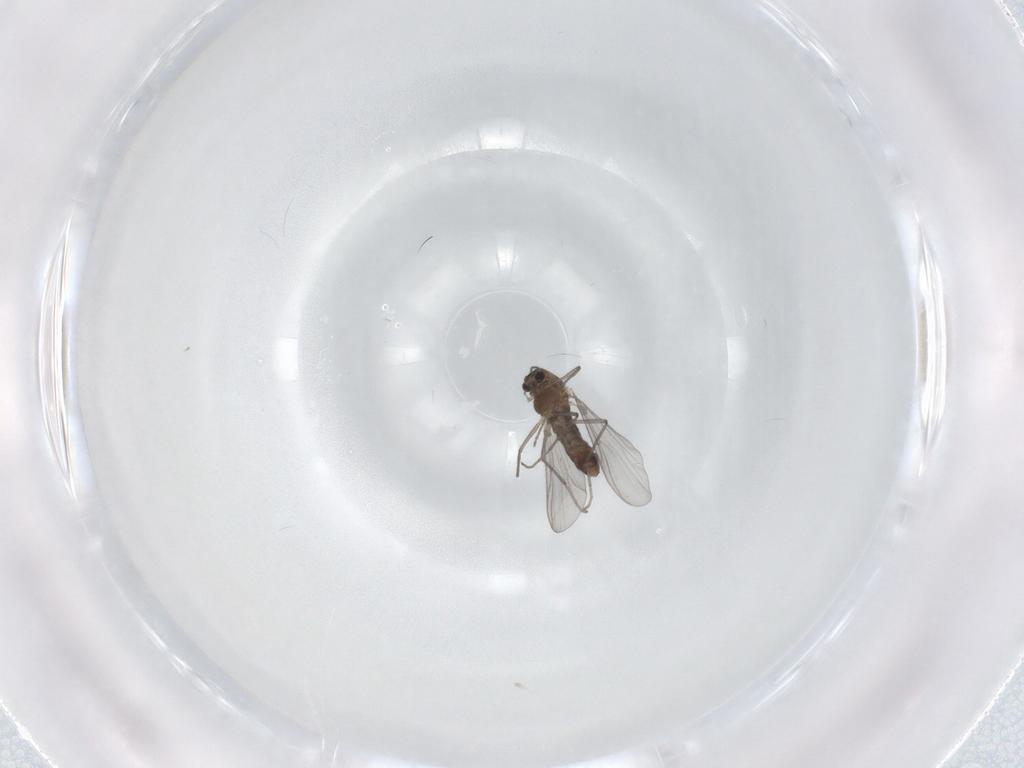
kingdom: Animalia
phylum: Arthropoda
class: Insecta
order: Diptera
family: Chironomidae
